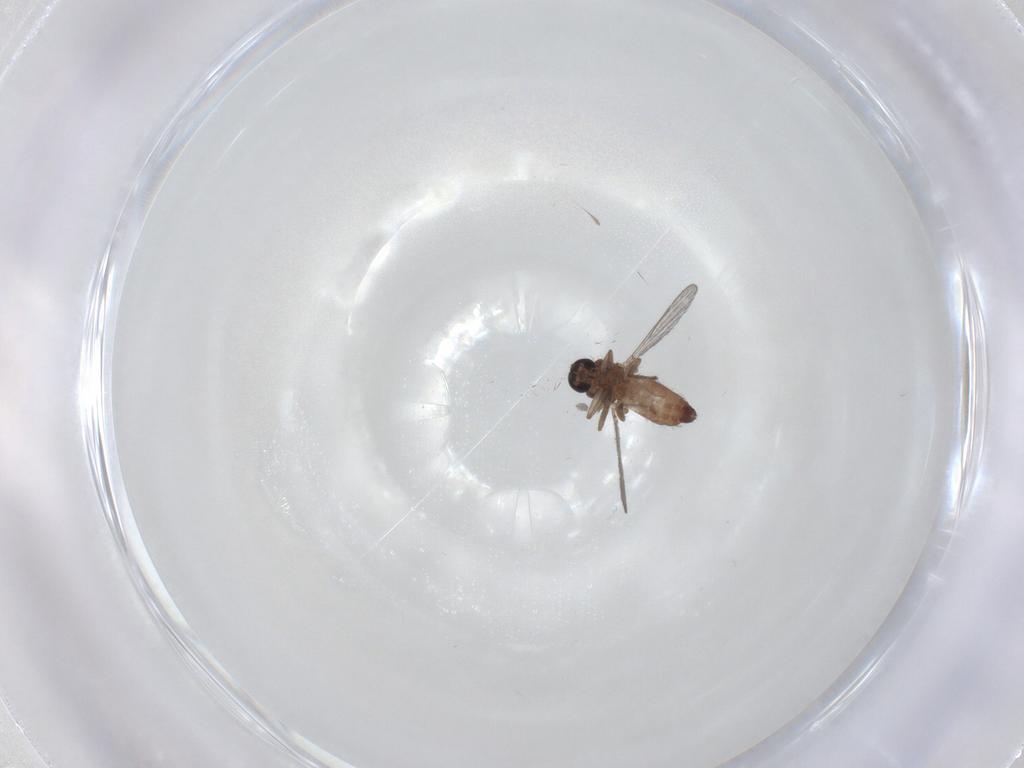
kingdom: Animalia
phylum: Arthropoda
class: Insecta
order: Diptera
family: Ceratopogonidae
